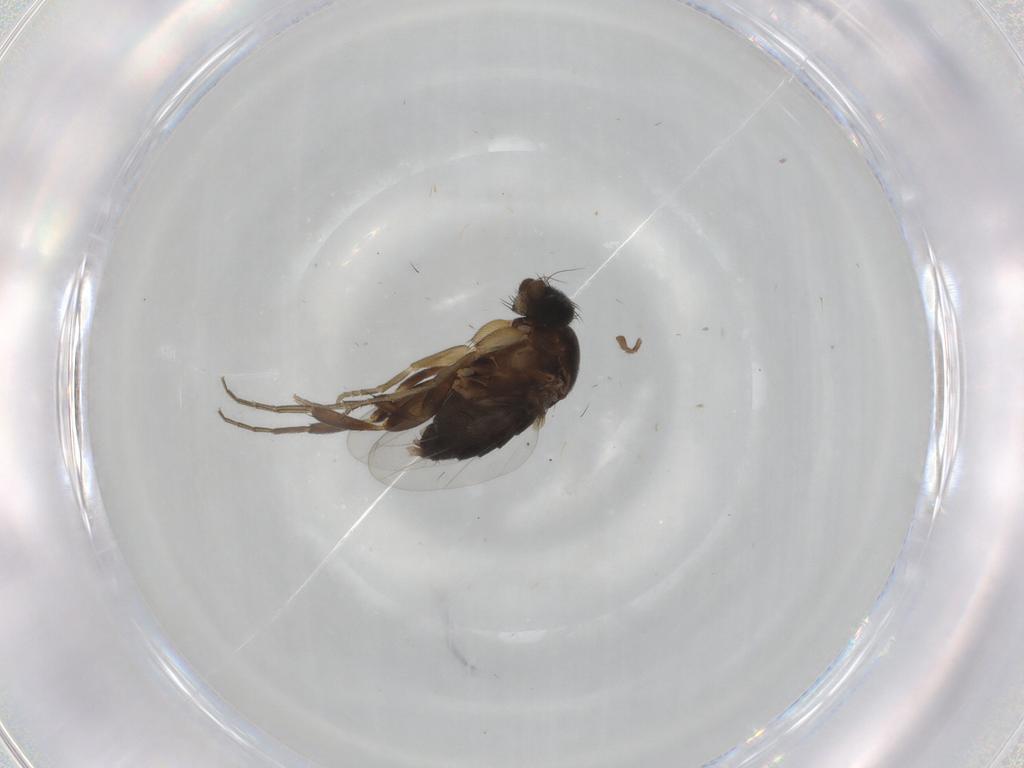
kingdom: Animalia
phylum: Arthropoda
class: Insecta
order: Diptera
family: Phoridae
